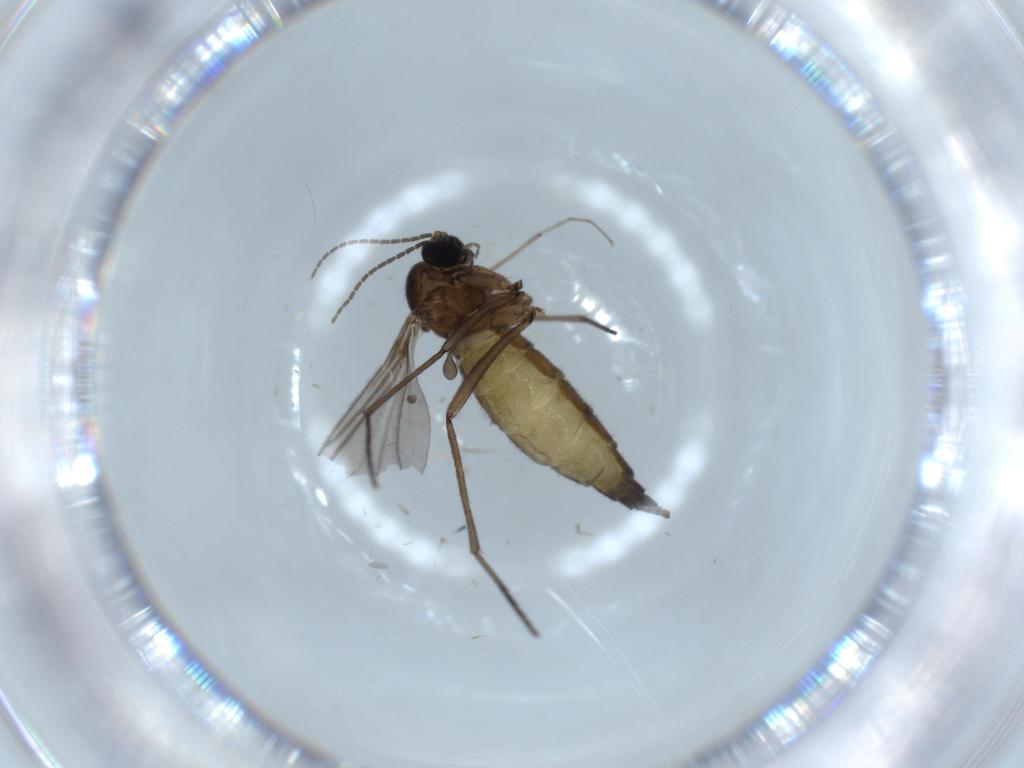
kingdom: Animalia
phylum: Arthropoda
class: Insecta
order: Diptera
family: Sciaridae
